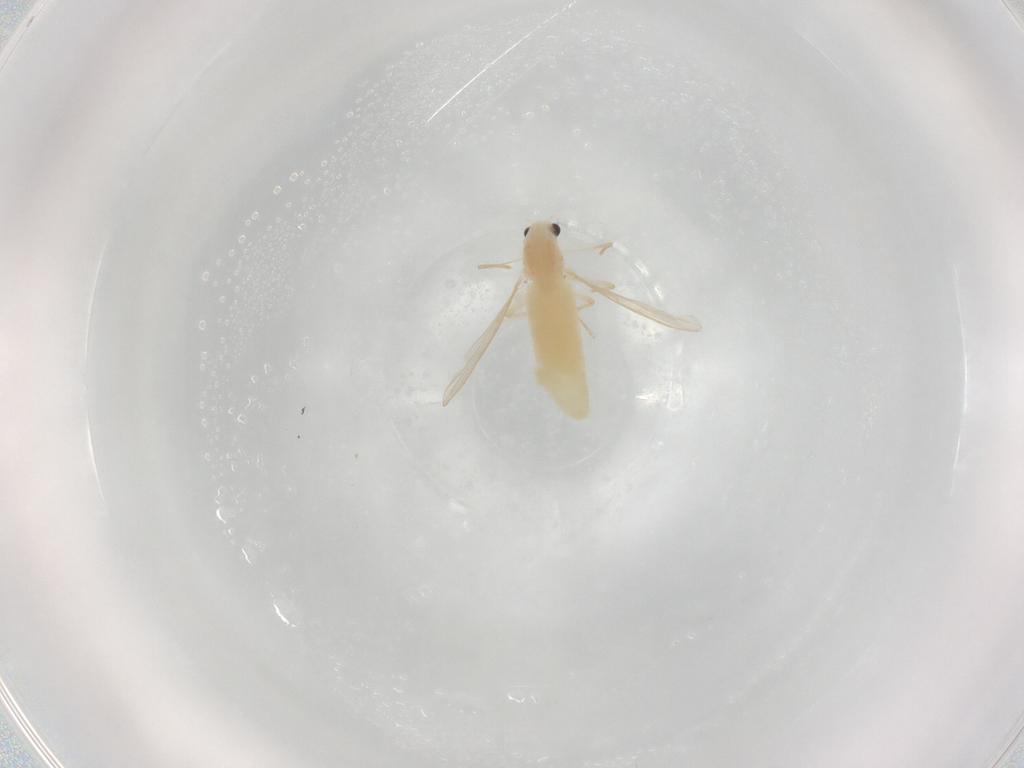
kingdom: Animalia
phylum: Arthropoda
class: Insecta
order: Diptera
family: Chironomidae
